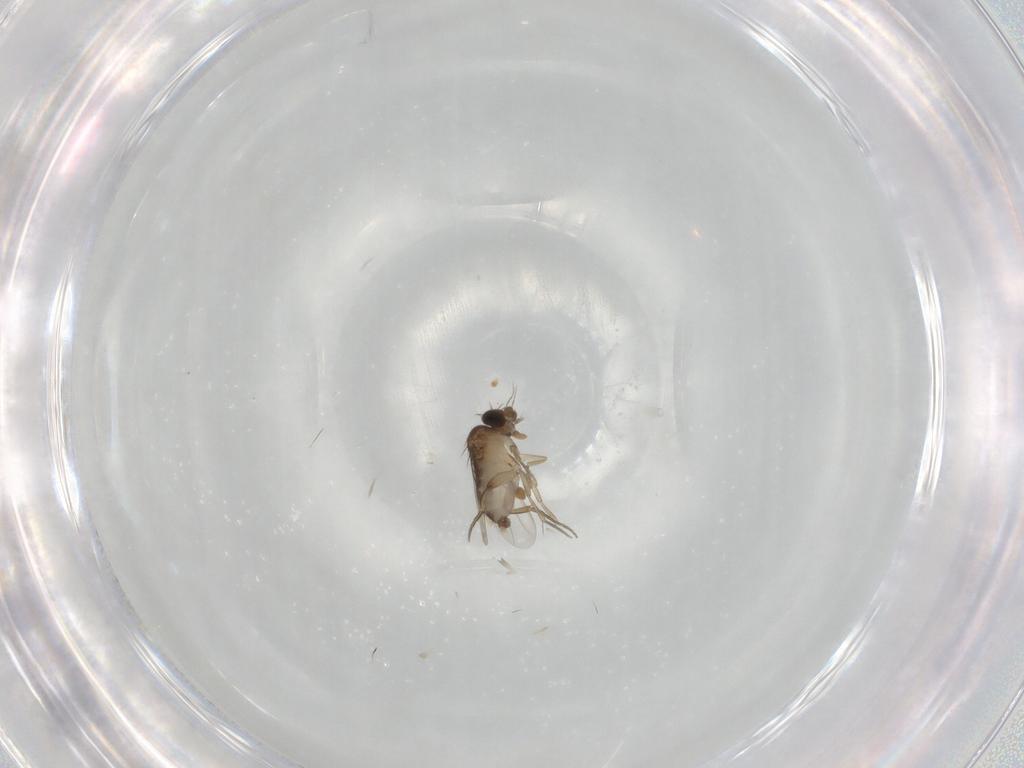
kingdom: Animalia
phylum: Arthropoda
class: Insecta
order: Diptera
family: Phoridae
